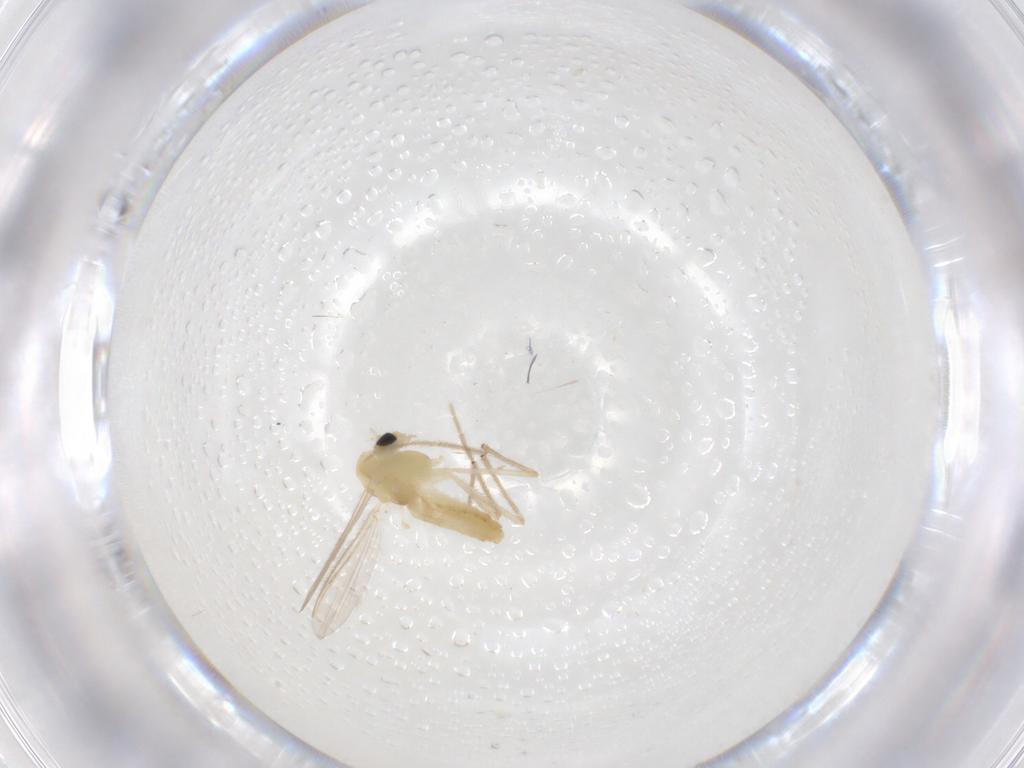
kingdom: Animalia
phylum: Arthropoda
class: Insecta
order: Diptera
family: Chironomidae
